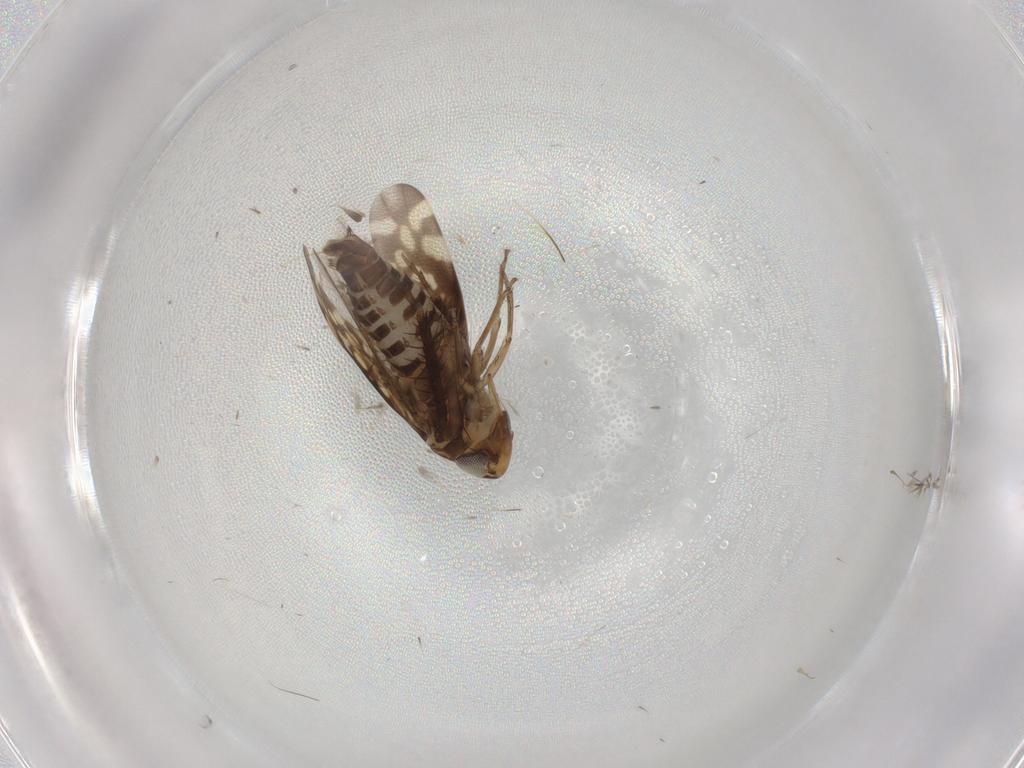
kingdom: Animalia
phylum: Arthropoda
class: Insecta
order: Hemiptera
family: Cicadellidae
